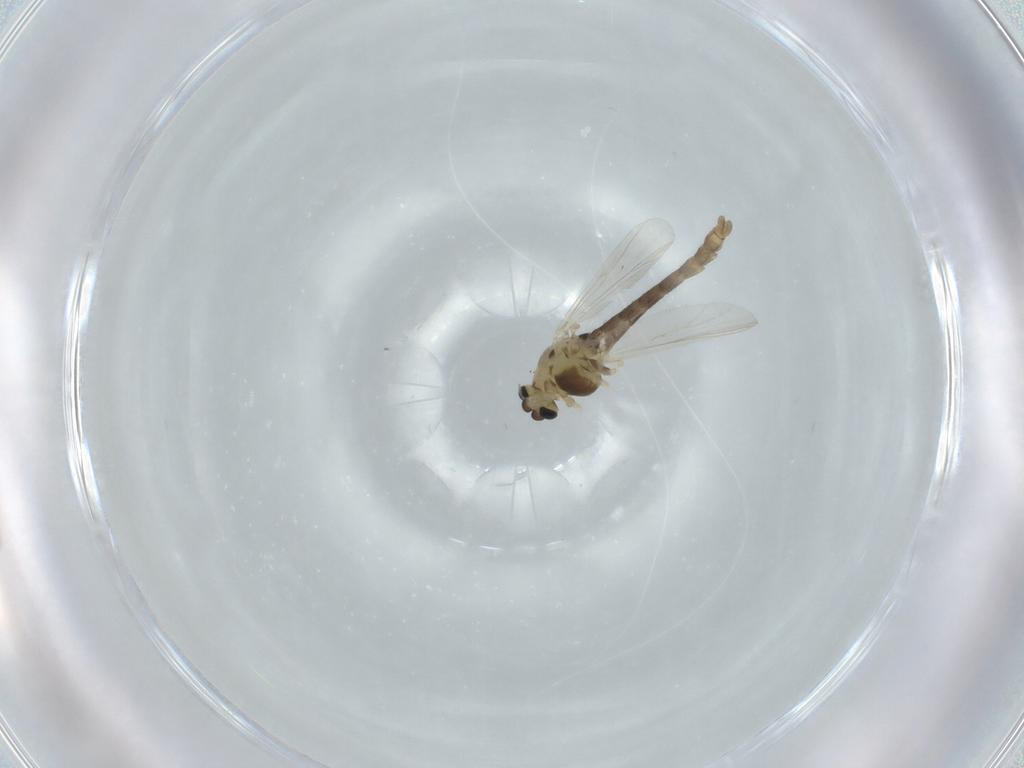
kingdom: Animalia
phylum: Arthropoda
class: Insecta
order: Diptera
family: Chironomidae
